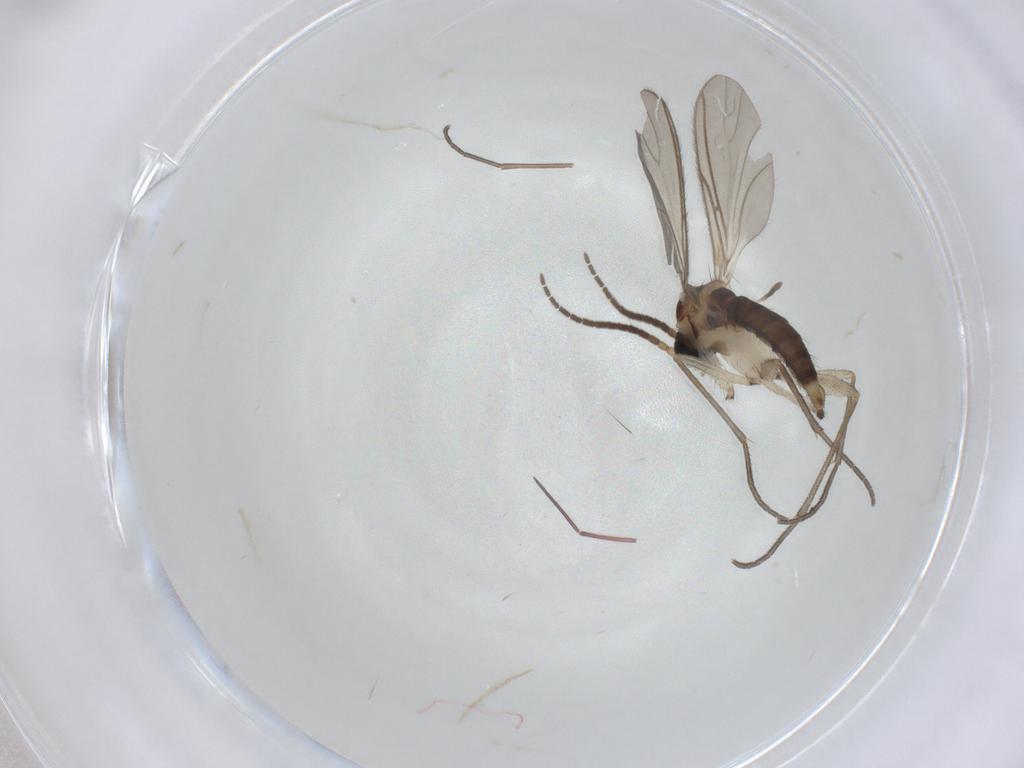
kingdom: Animalia
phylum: Arthropoda
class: Insecta
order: Diptera
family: Sciaridae
